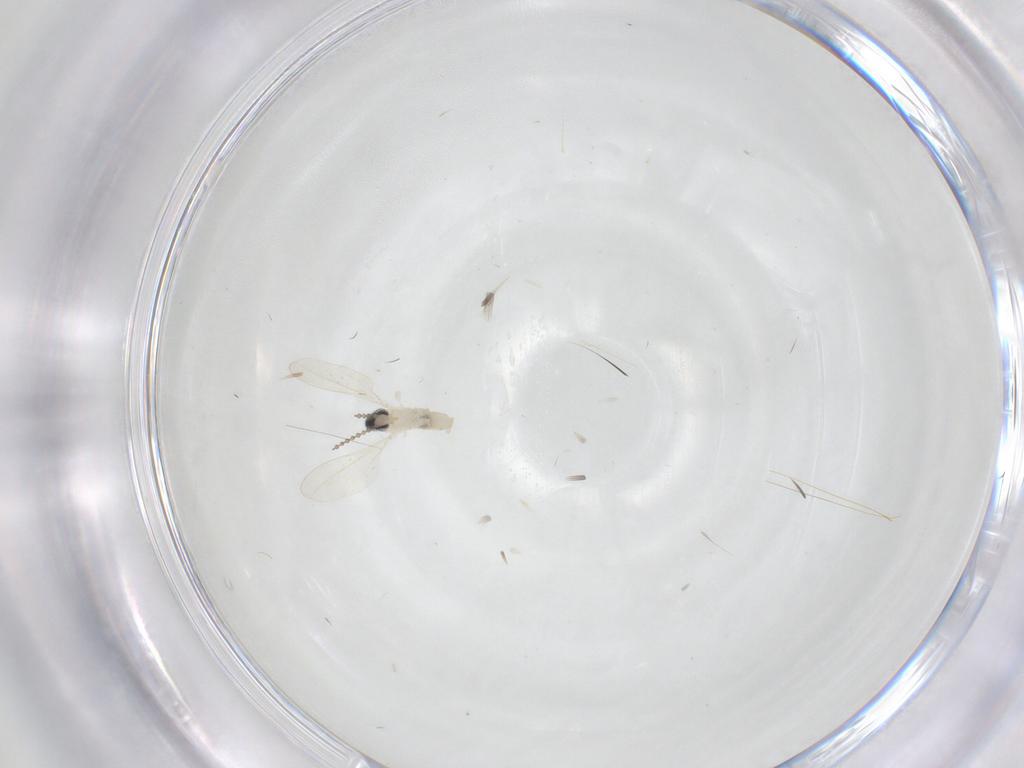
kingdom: Animalia
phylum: Arthropoda
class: Insecta
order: Diptera
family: Cecidomyiidae
